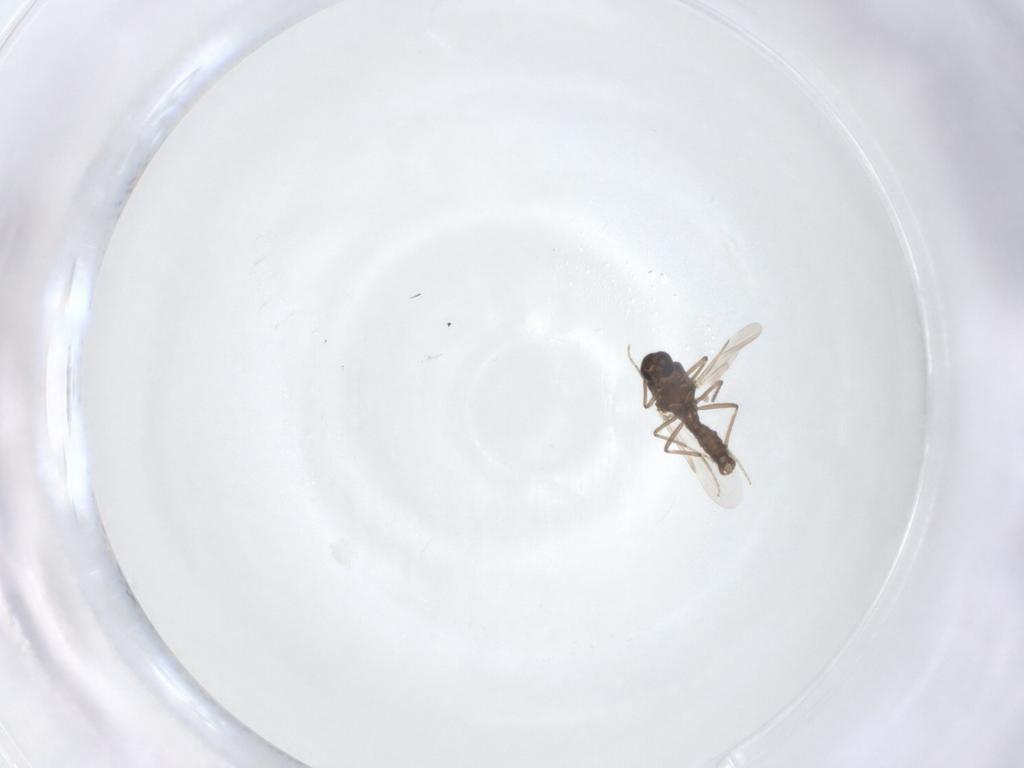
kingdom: Animalia
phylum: Arthropoda
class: Insecta
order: Diptera
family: Ceratopogonidae
